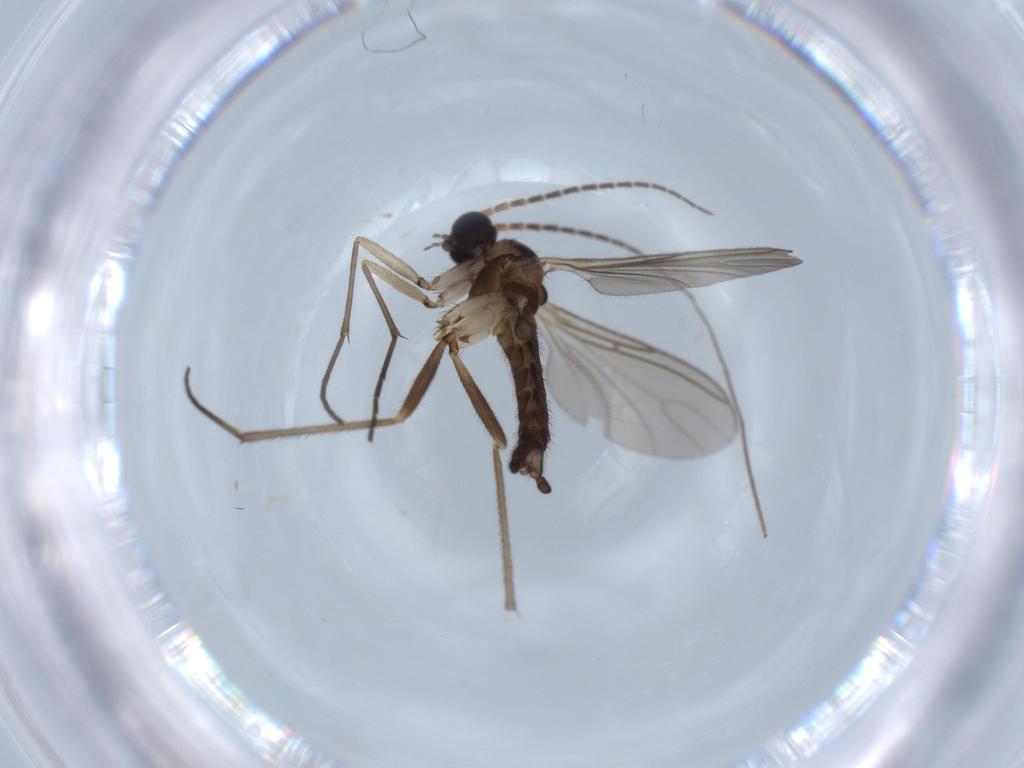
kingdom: Animalia
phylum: Arthropoda
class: Insecta
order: Diptera
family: Sciaridae
